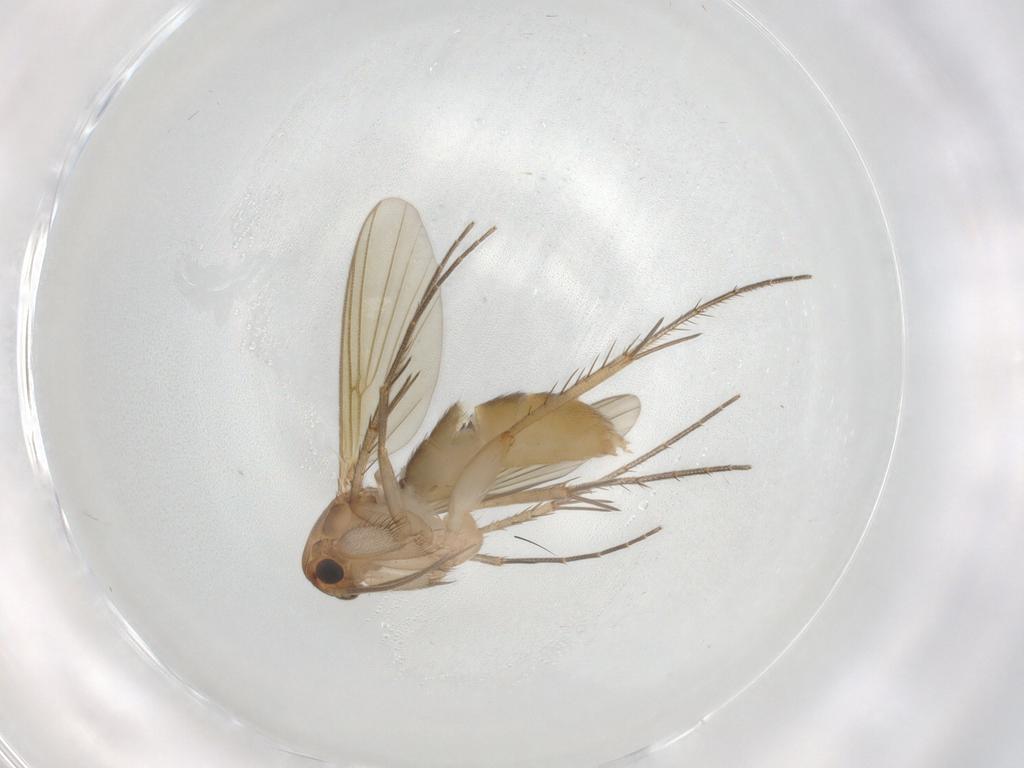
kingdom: Animalia
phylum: Arthropoda
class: Insecta
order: Diptera
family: Mycetophilidae
